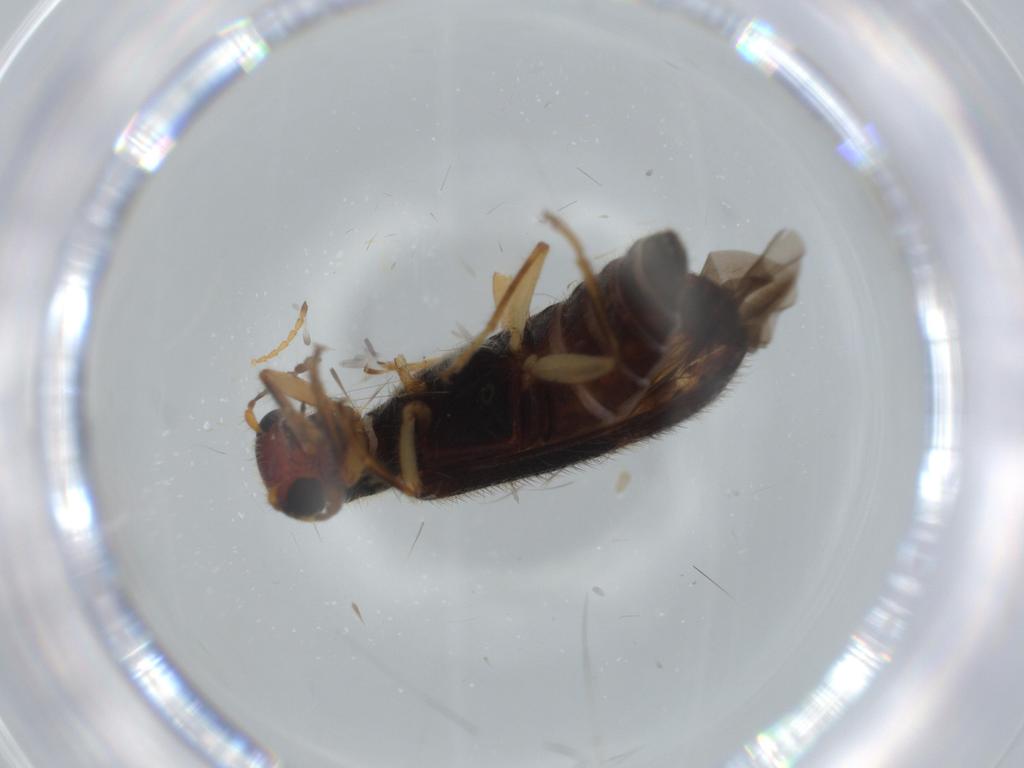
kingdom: Animalia
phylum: Arthropoda
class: Insecta
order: Coleoptera
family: Cleridae
